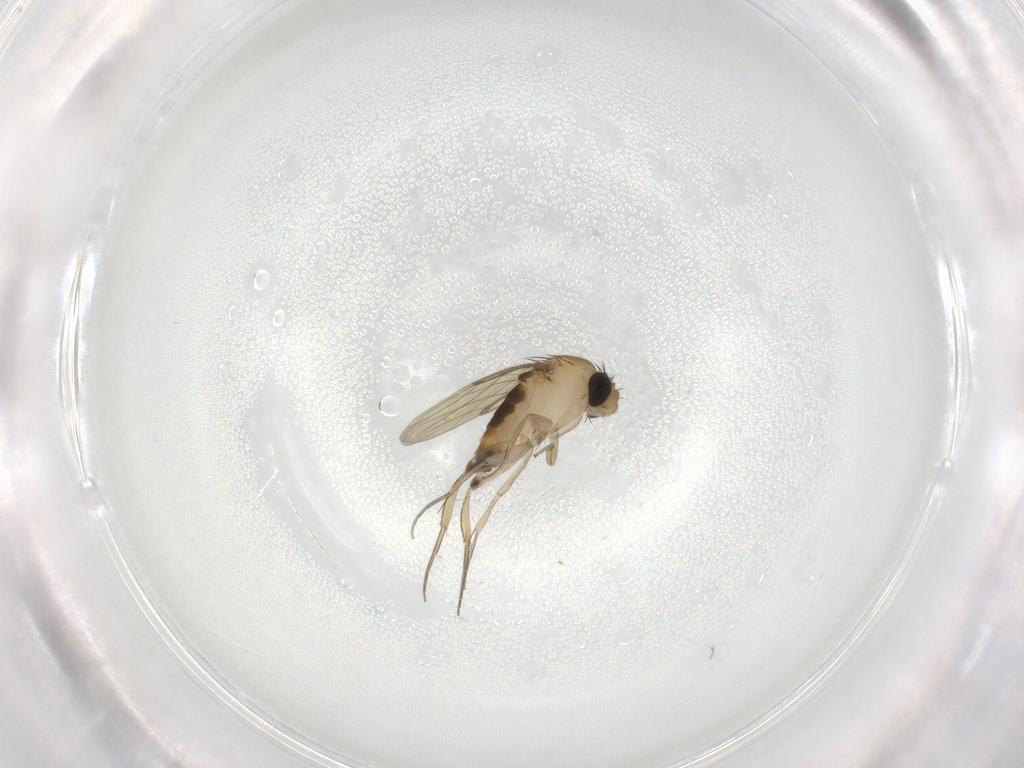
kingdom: Animalia
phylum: Arthropoda
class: Insecta
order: Diptera
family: Phoridae
